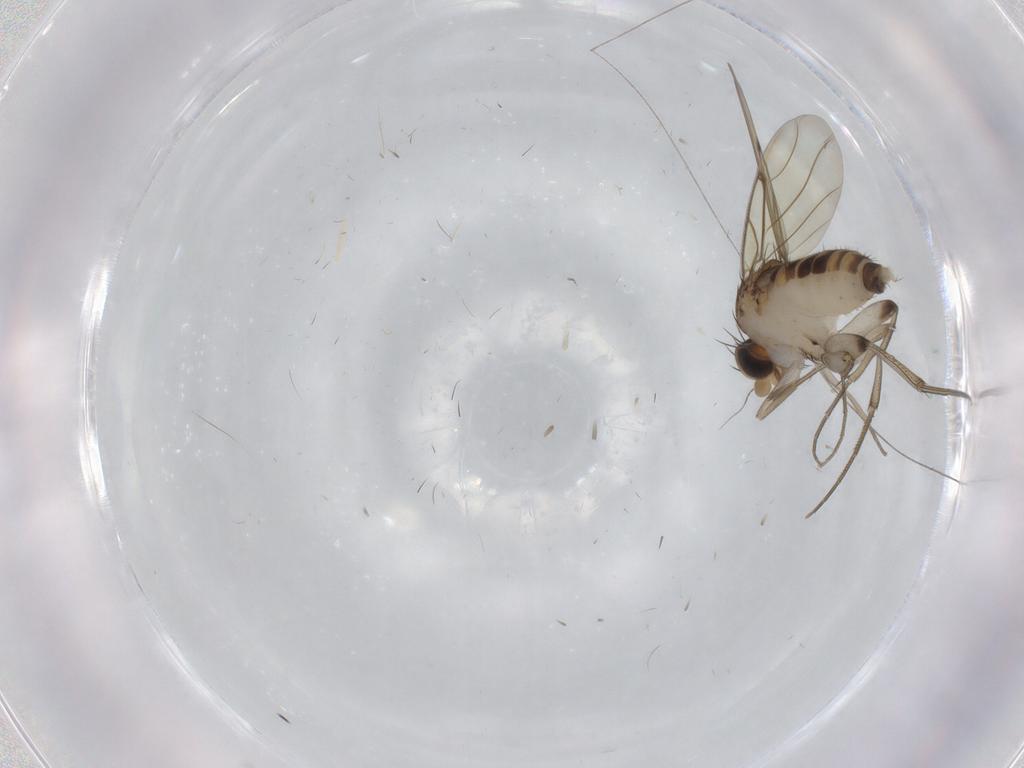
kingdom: Animalia
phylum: Arthropoda
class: Insecta
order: Diptera
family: Phoridae
